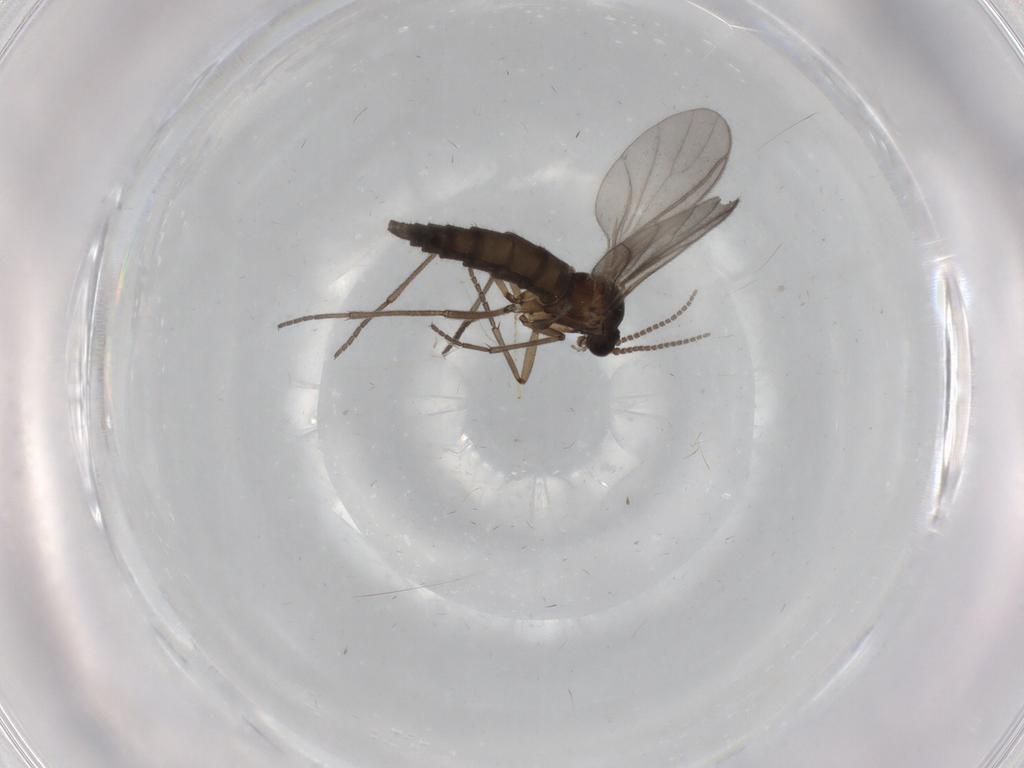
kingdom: Animalia
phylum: Arthropoda
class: Insecta
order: Diptera
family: Sciaridae
